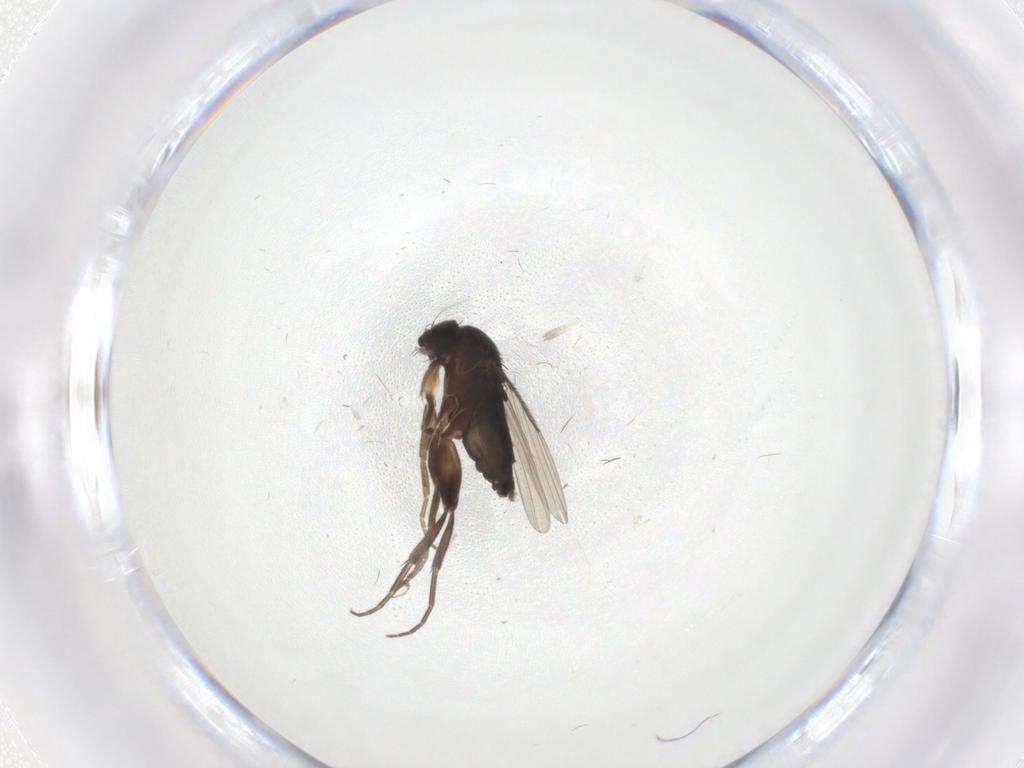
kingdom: Animalia
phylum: Arthropoda
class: Insecta
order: Diptera
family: Phoridae
